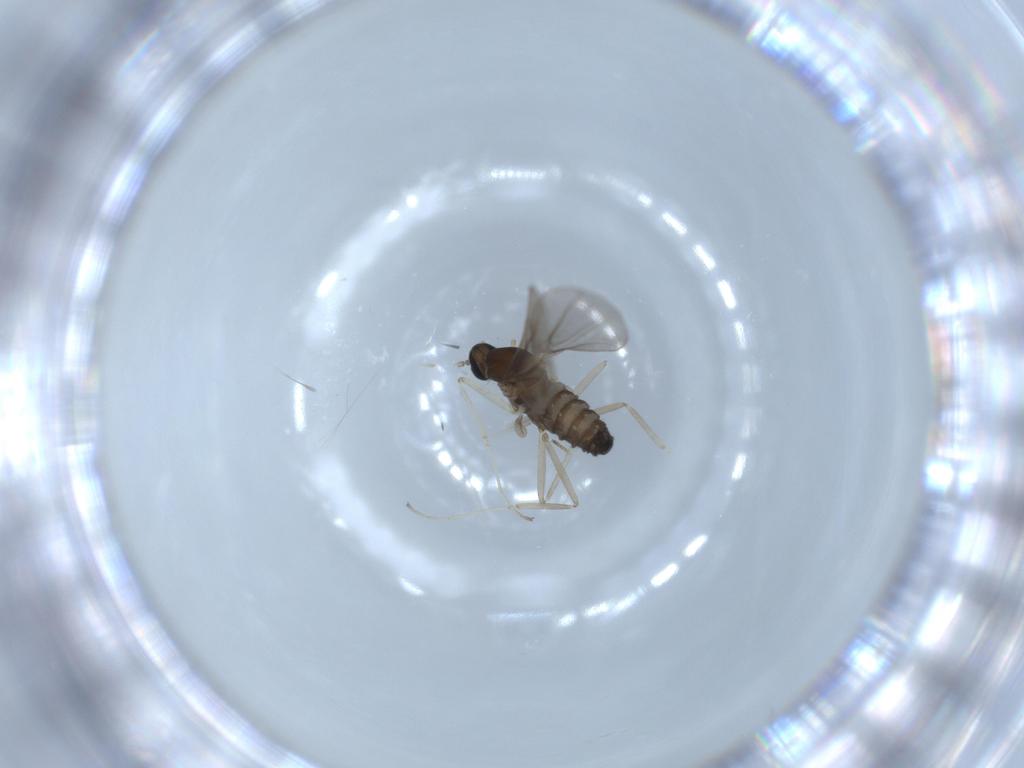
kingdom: Animalia
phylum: Arthropoda
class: Insecta
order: Diptera
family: Cecidomyiidae
